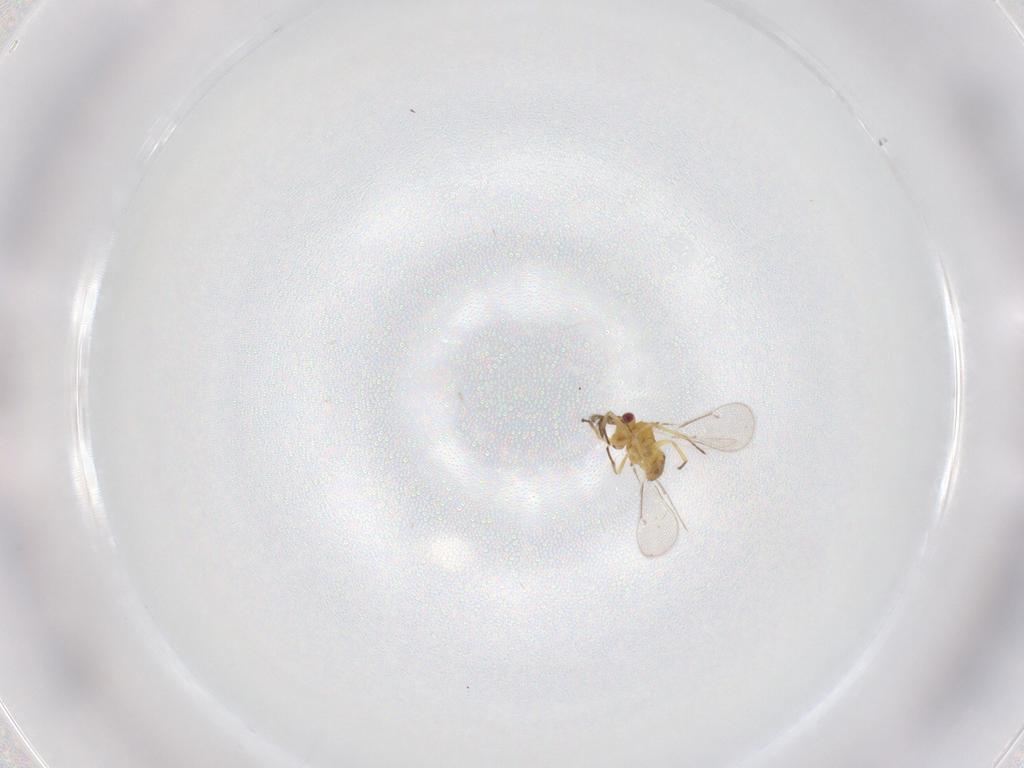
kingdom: Animalia
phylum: Arthropoda
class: Insecta
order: Hymenoptera
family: Eulophidae
